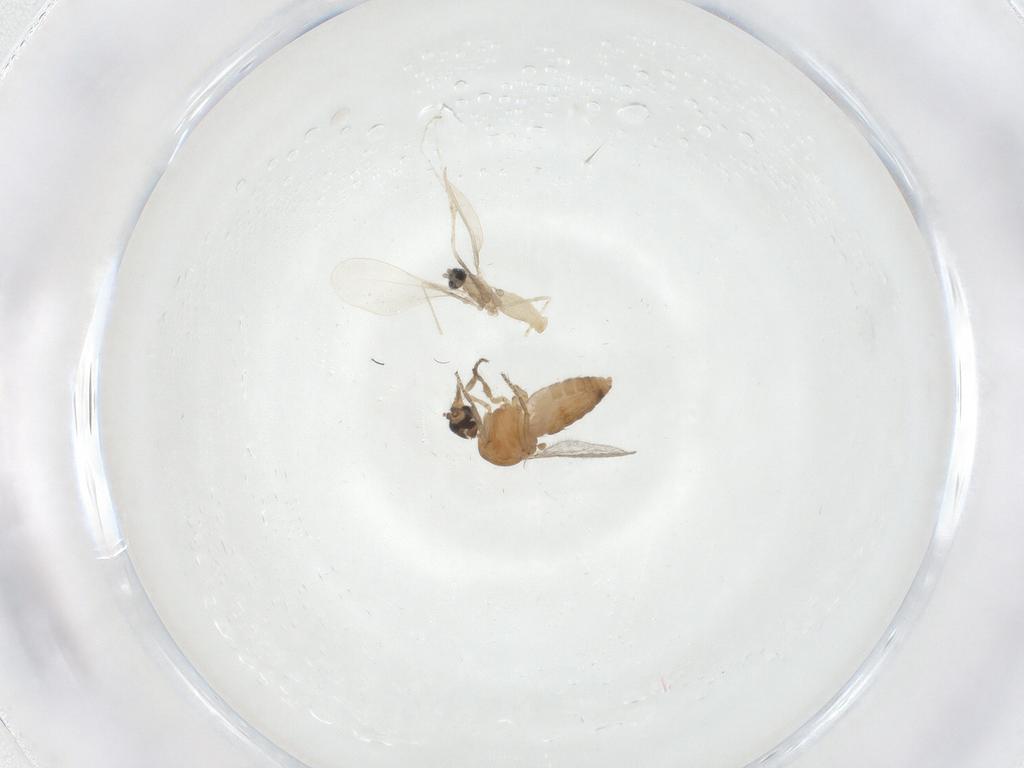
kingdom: Animalia
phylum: Arthropoda
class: Insecta
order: Diptera
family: Ceratopogonidae
